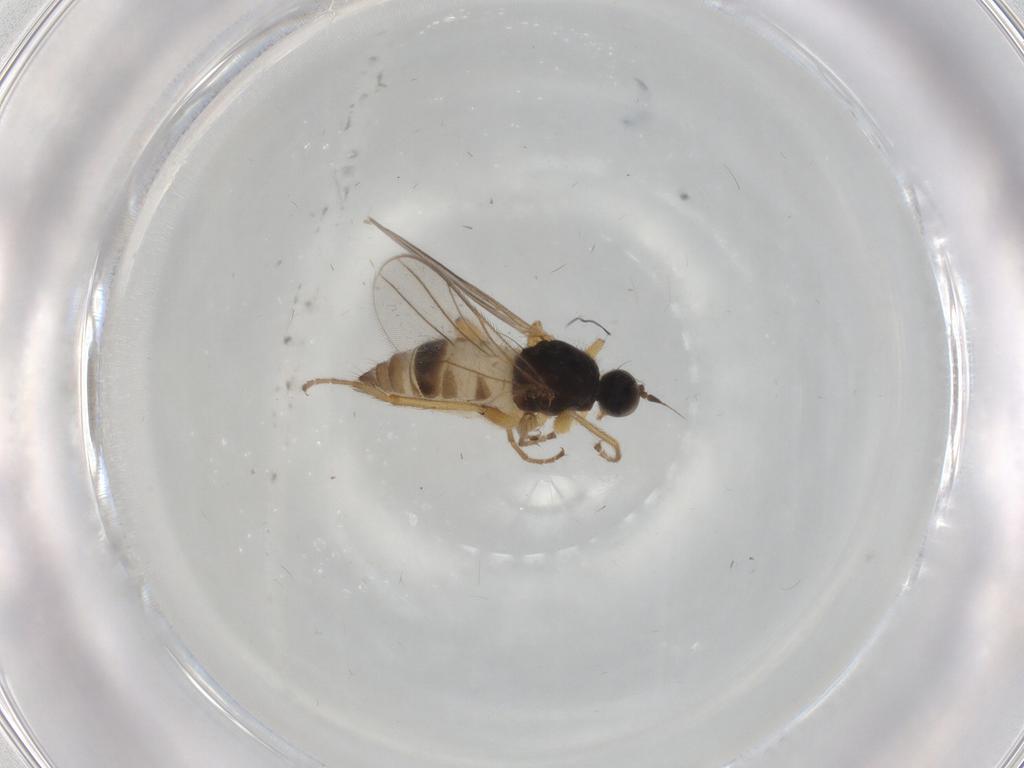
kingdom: Animalia
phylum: Arthropoda
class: Insecta
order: Diptera
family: Hybotidae
